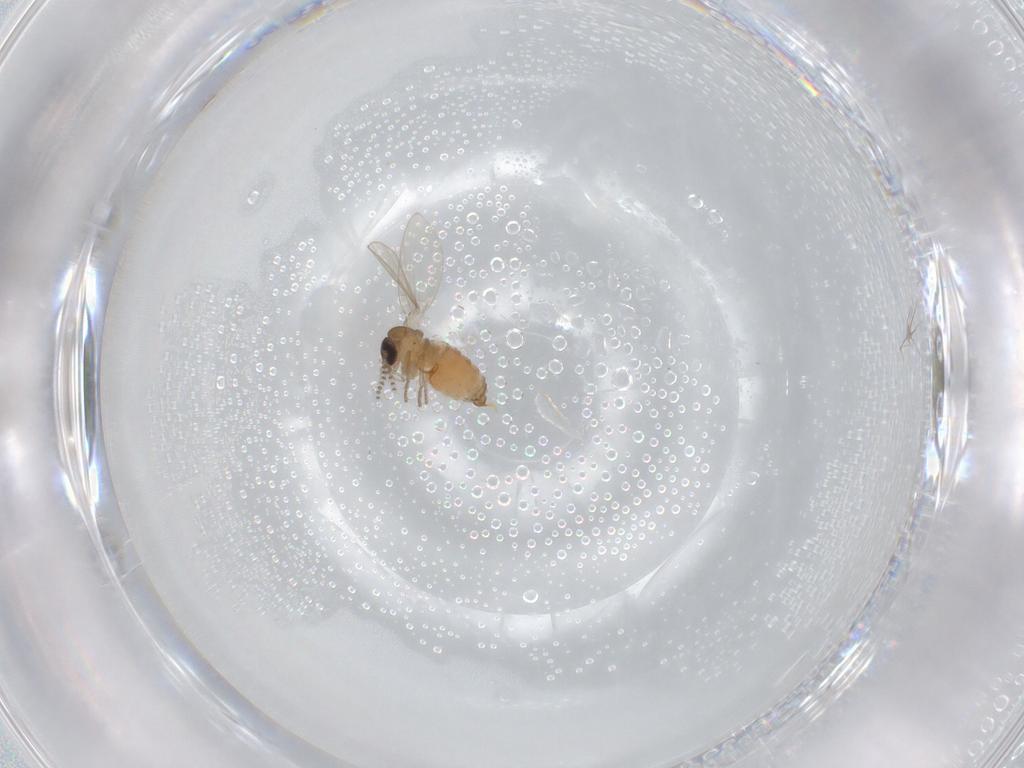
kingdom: Animalia
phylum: Arthropoda
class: Insecta
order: Diptera
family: Psychodidae
